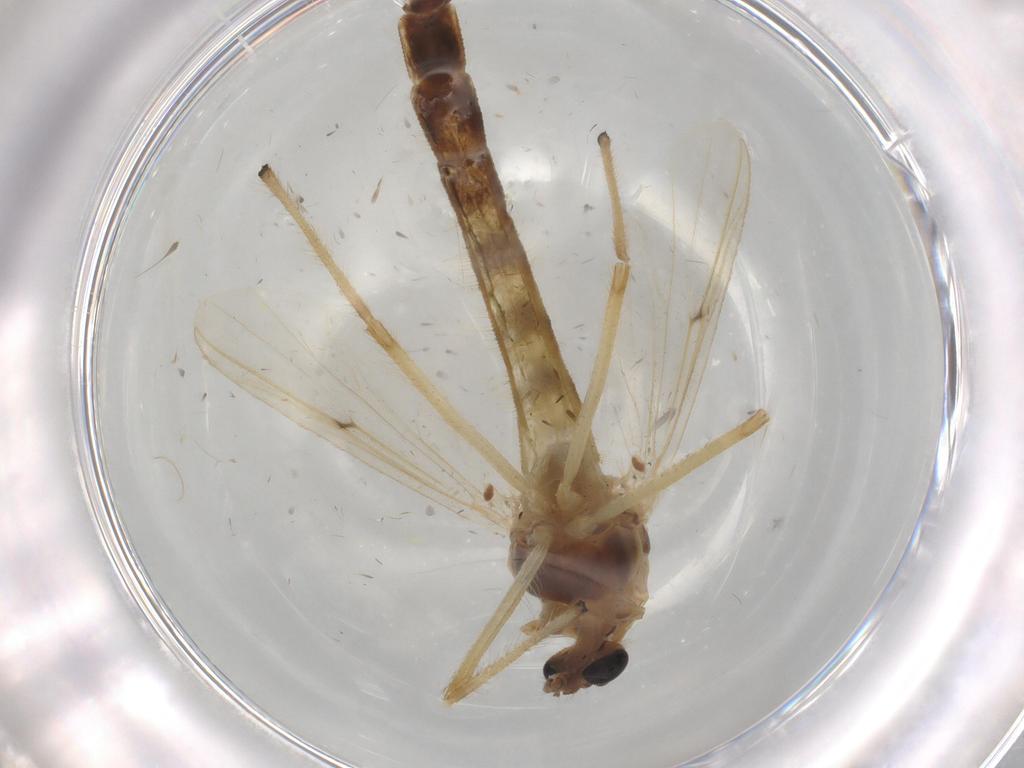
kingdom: Animalia
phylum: Arthropoda
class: Insecta
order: Diptera
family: Chironomidae
